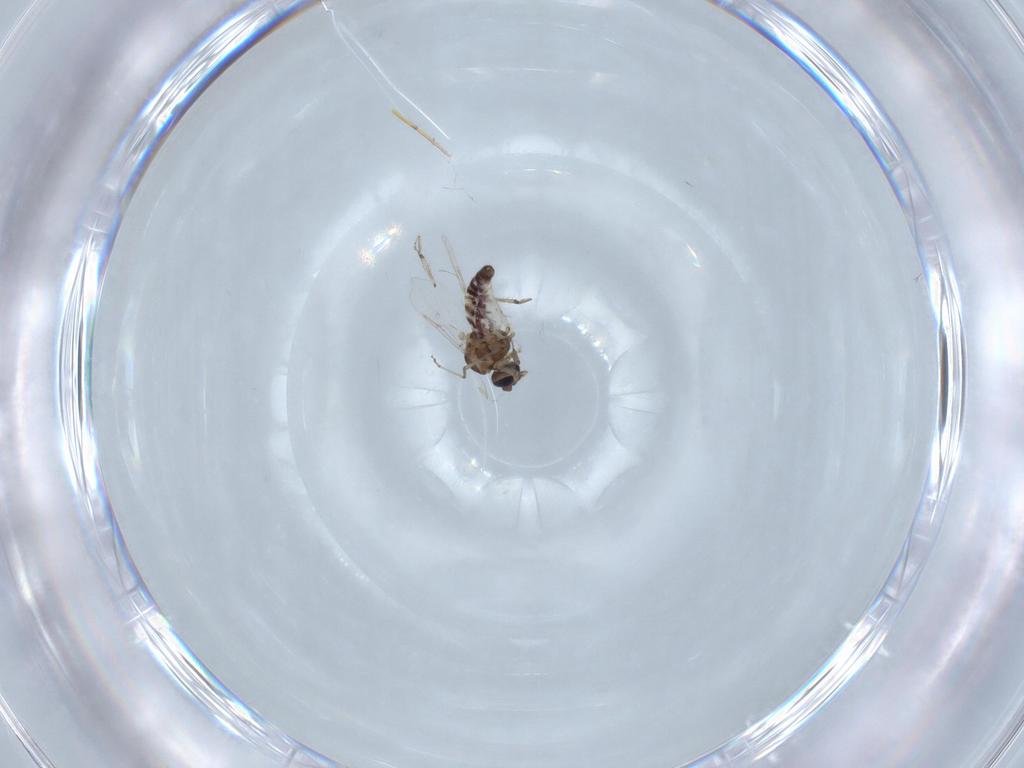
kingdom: Animalia
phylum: Arthropoda
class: Insecta
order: Diptera
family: Ceratopogonidae
